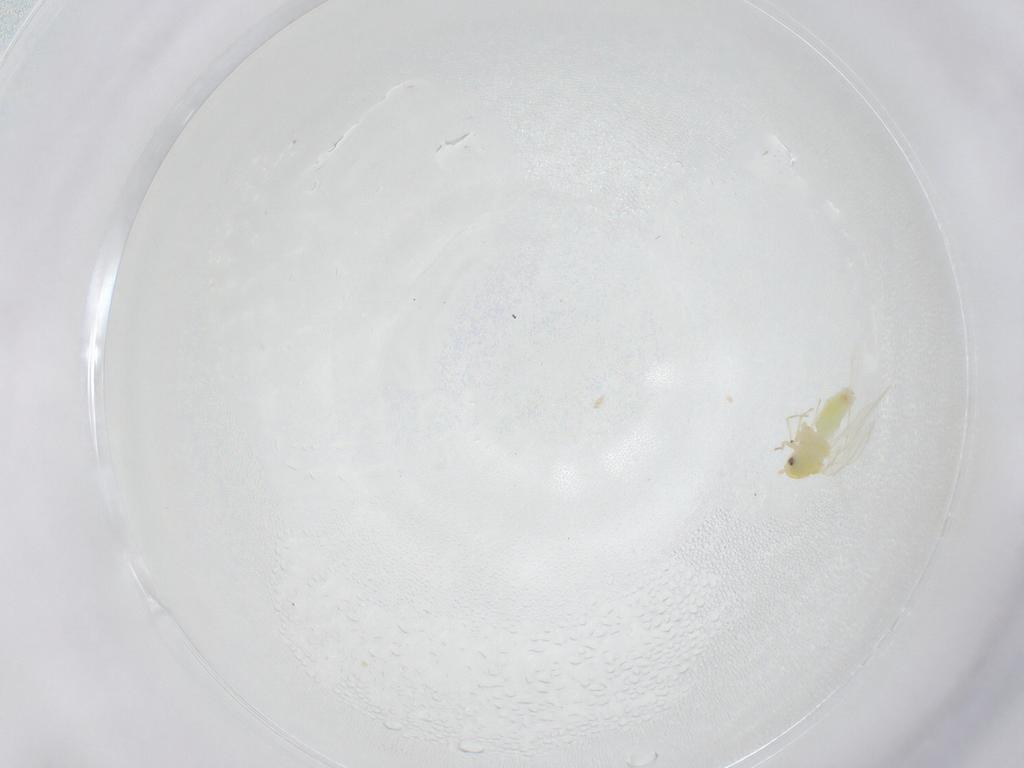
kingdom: Animalia
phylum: Arthropoda
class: Insecta
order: Hemiptera
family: Aleyrodidae
